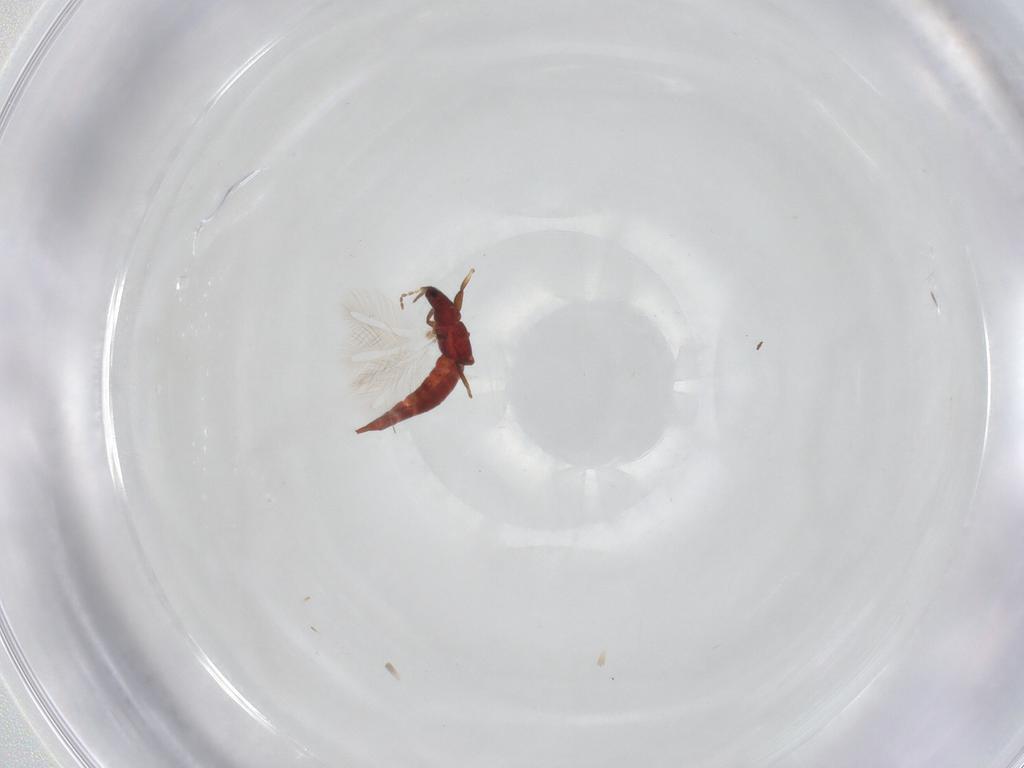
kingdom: Animalia
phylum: Arthropoda
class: Insecta
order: Thysanoptera
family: Phlaeothripidae
